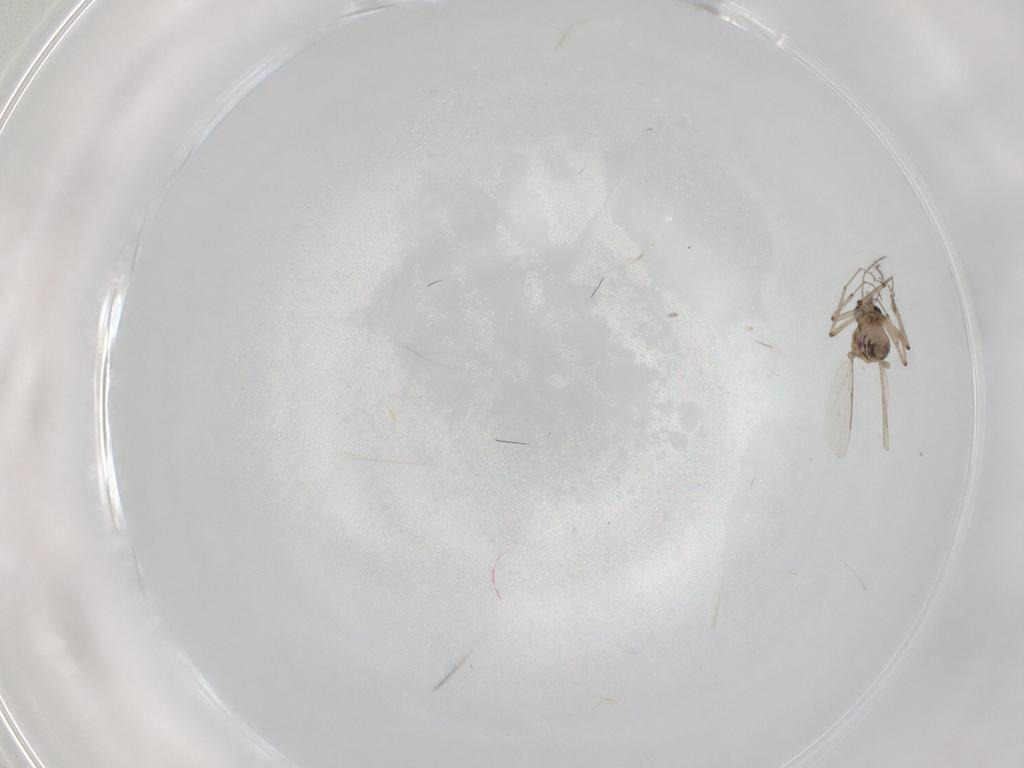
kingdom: Animalia
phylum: Arthropoda
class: Insecta
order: Diptera
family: Ceratopogonidae
